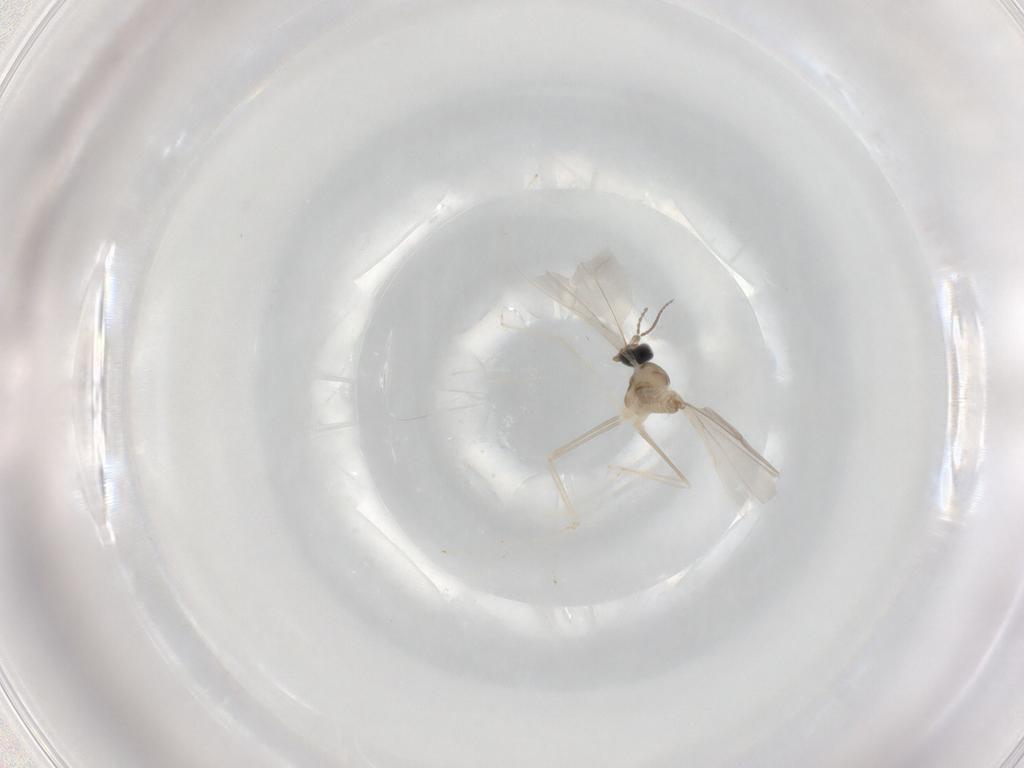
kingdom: Animalia
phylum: Arthropoda
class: Insecta
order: Diptera
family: Cecidomyiidae
